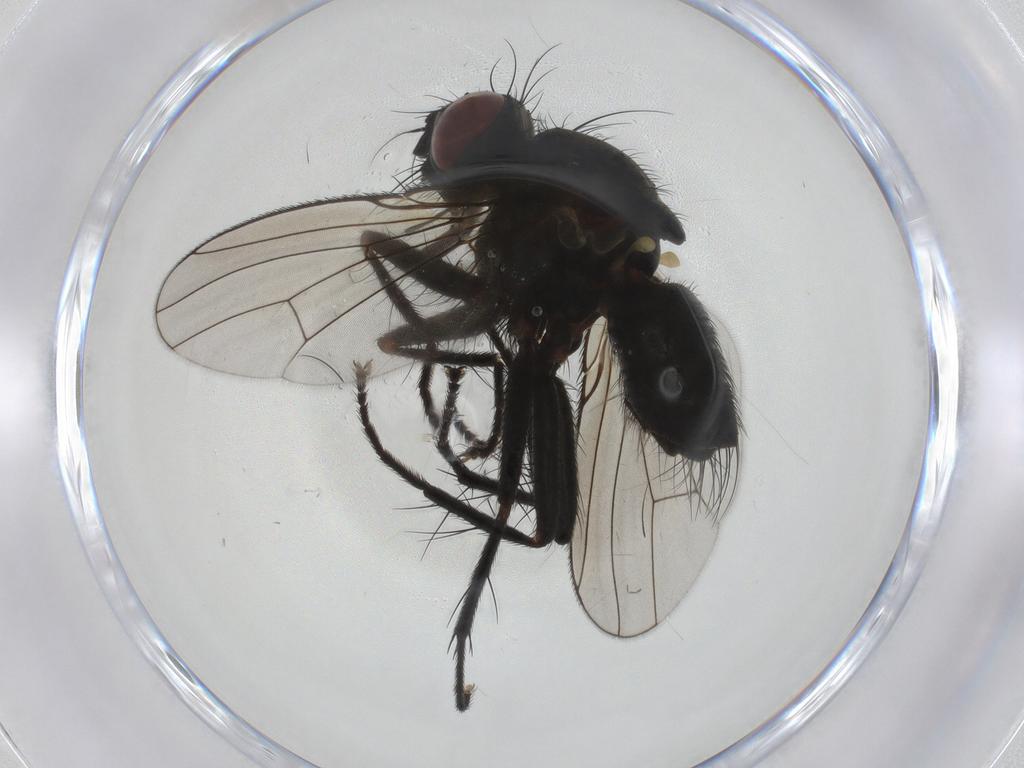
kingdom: Animalia
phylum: Arthropoda
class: Insecta
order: Diptera
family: Muscidae
